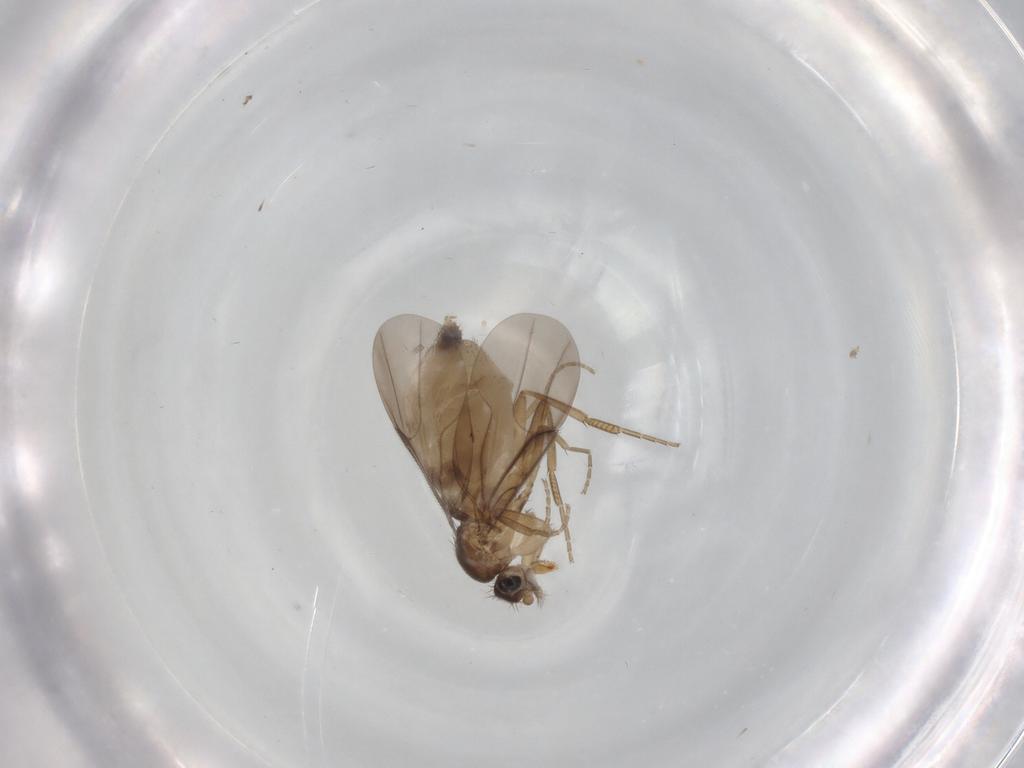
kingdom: Animalia
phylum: Arthropoda
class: Insecta
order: Diptera
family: Phoridae
